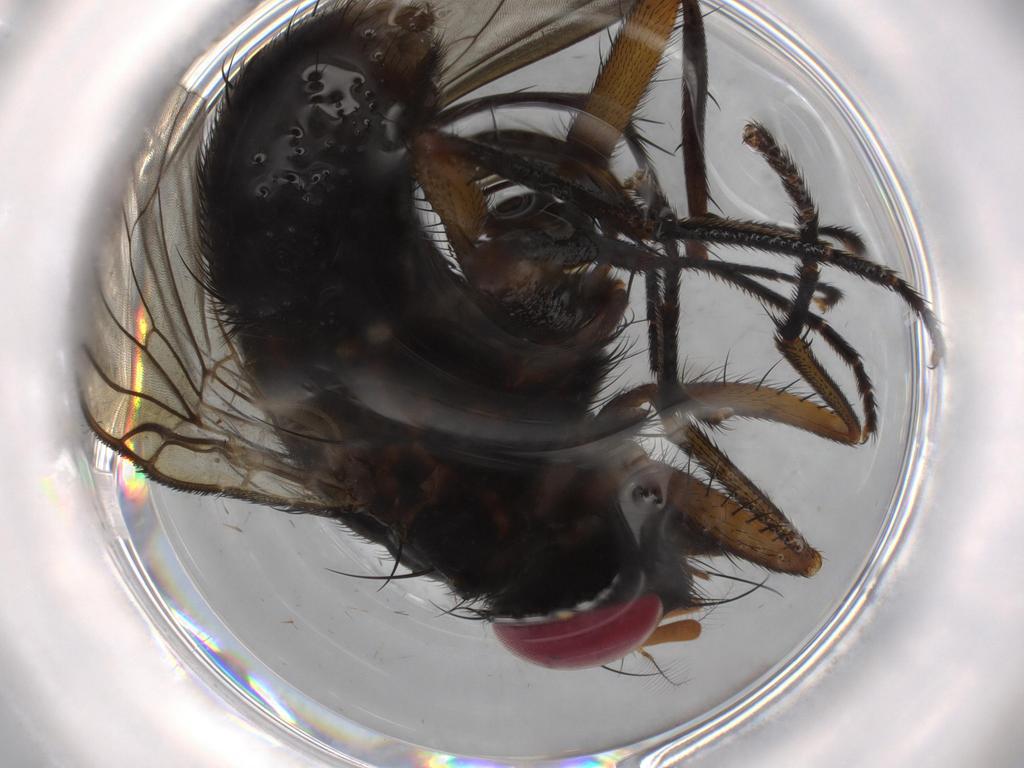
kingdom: Animalia
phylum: Arthropoda
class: Insecta
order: Diptera
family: Muscidae
